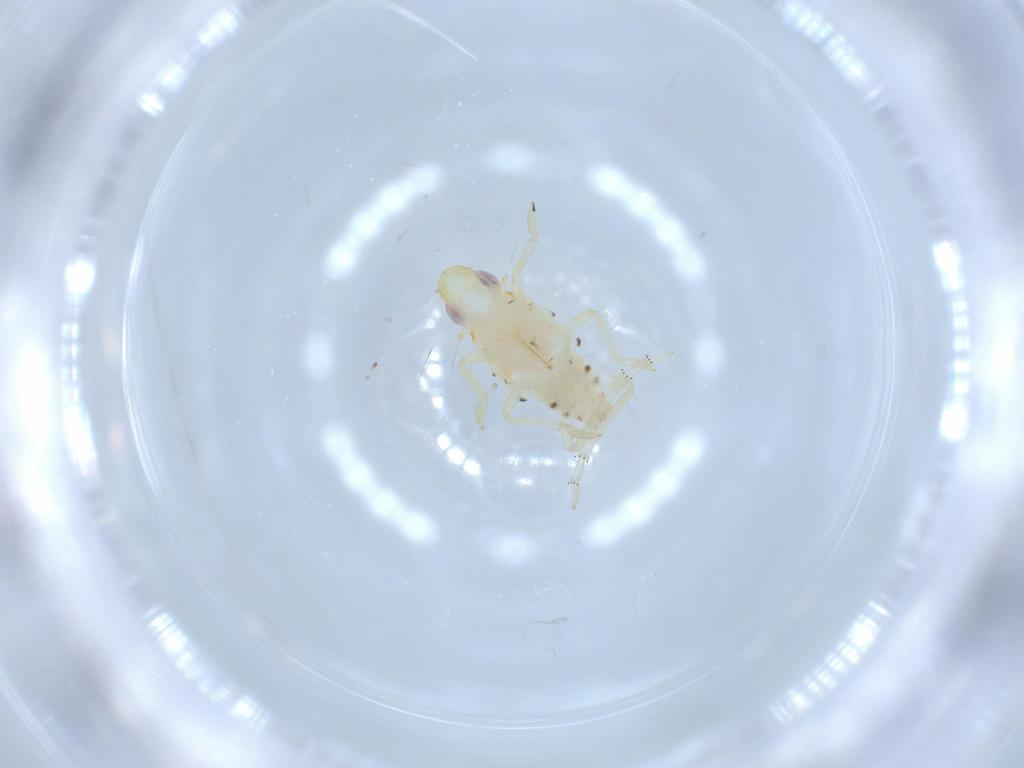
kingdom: Animalia
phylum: Arthropoda
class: Insecta
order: Hemiptera
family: Tropiduchidae
